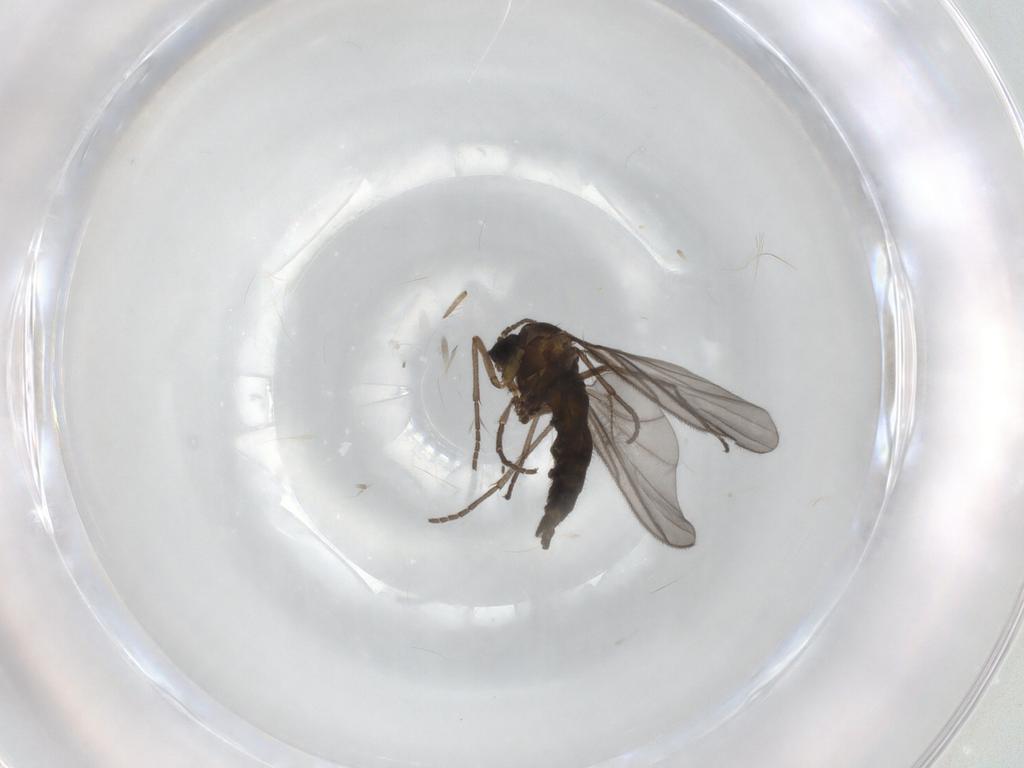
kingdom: Animalia
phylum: Arthropoda
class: Insecta
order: Diptera
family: Sciaridae
